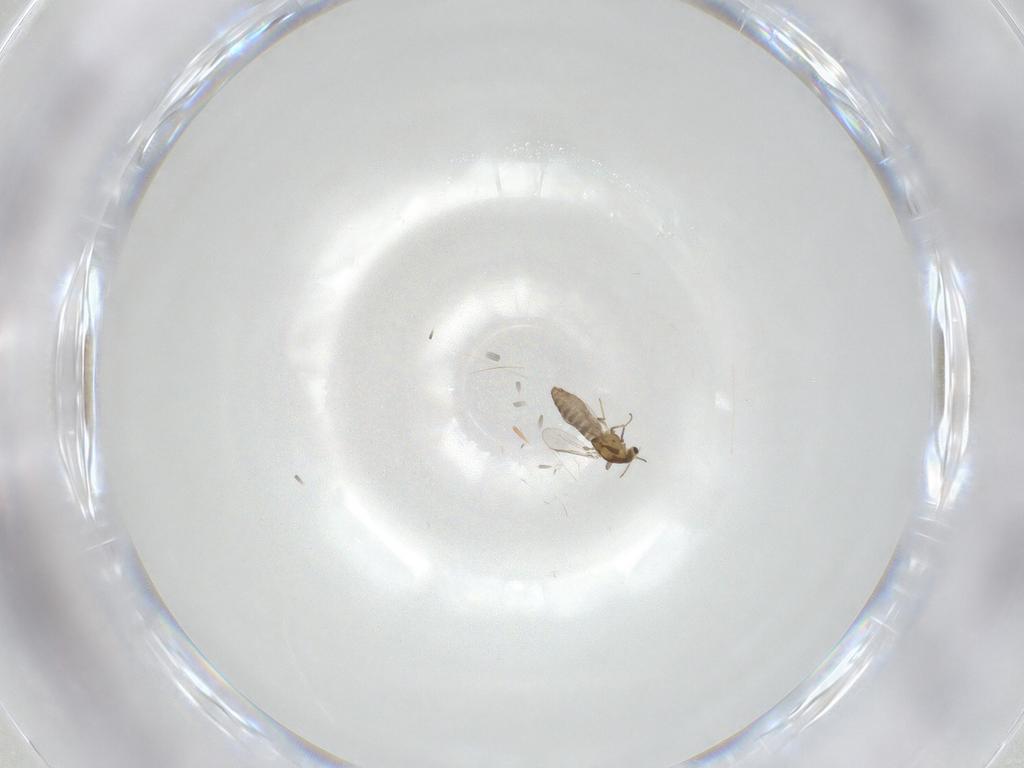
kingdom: Animalia
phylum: Arthropoda
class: Insecta
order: Diptera
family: Chironomidae
